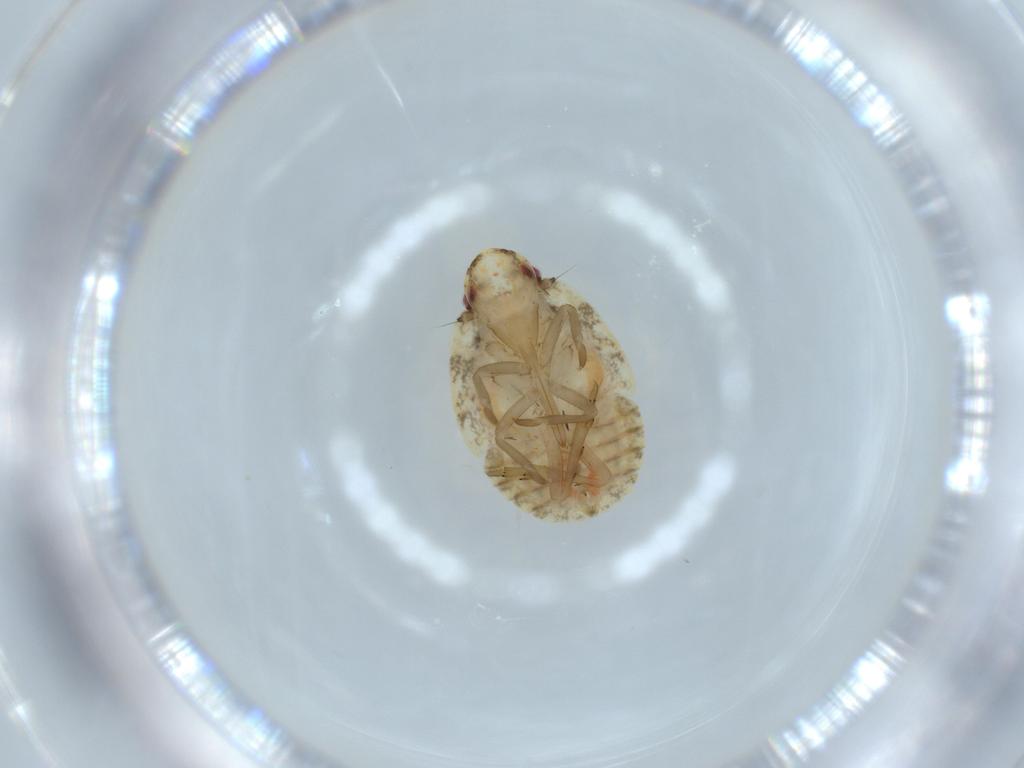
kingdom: Animalia
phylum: Arthropoda
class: Insecta
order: Hemiptera
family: Flatidae
